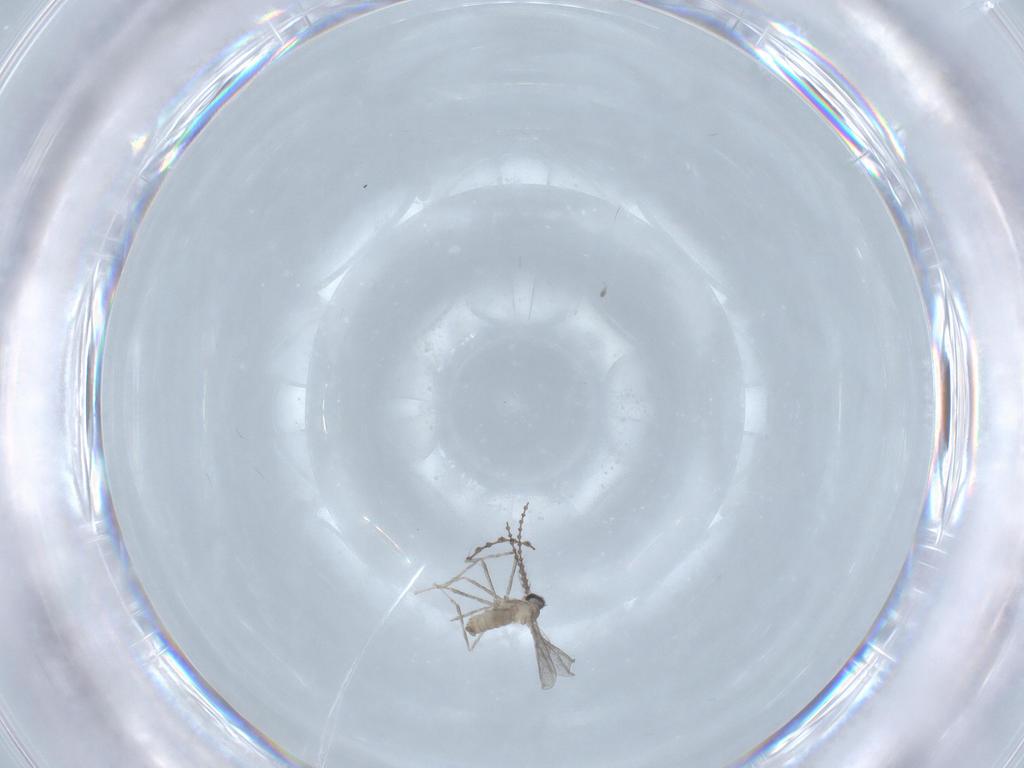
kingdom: Animalia
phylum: Arthropoda
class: Insecta
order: Diptera
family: Cecidomyiidae
